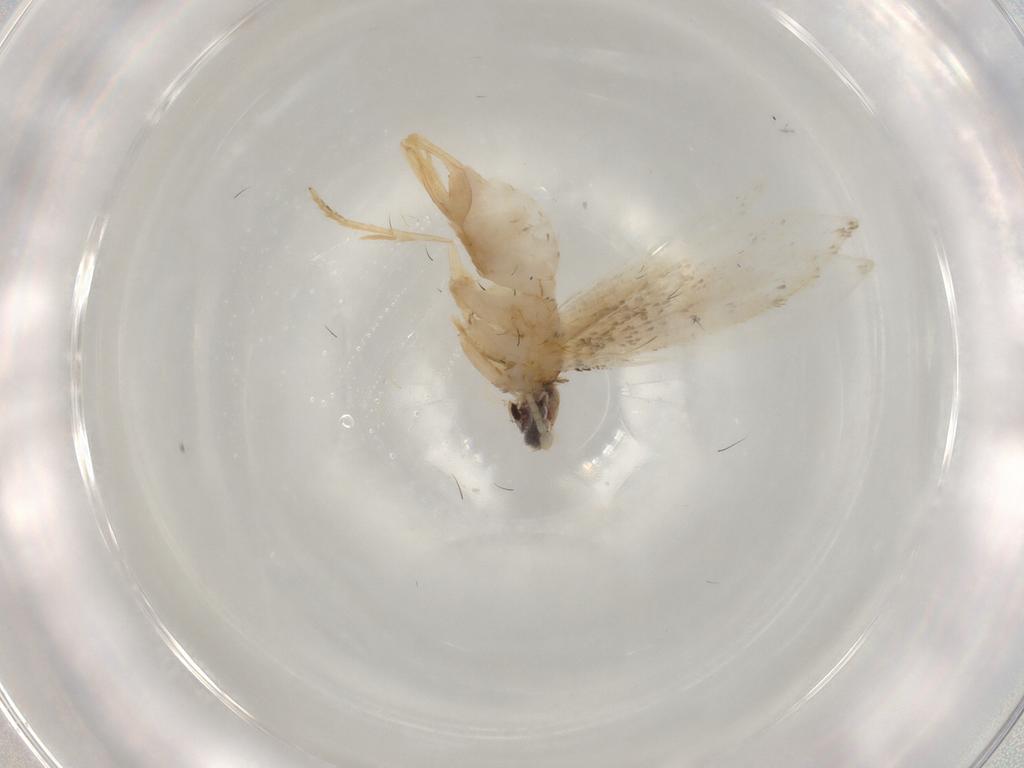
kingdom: Animalia
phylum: Arthropoda
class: Insecta
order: Lepidoptera
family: Tineidae
